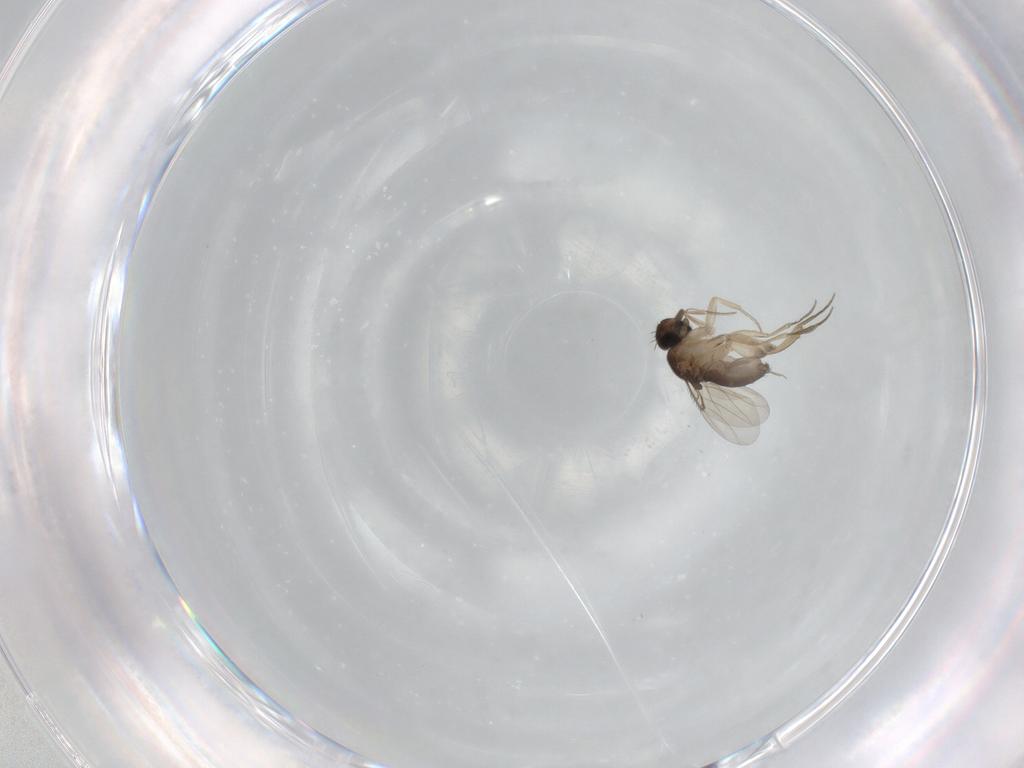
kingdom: Animalia
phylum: Arthropoda
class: Insecta
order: Diptera
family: Phoridae
